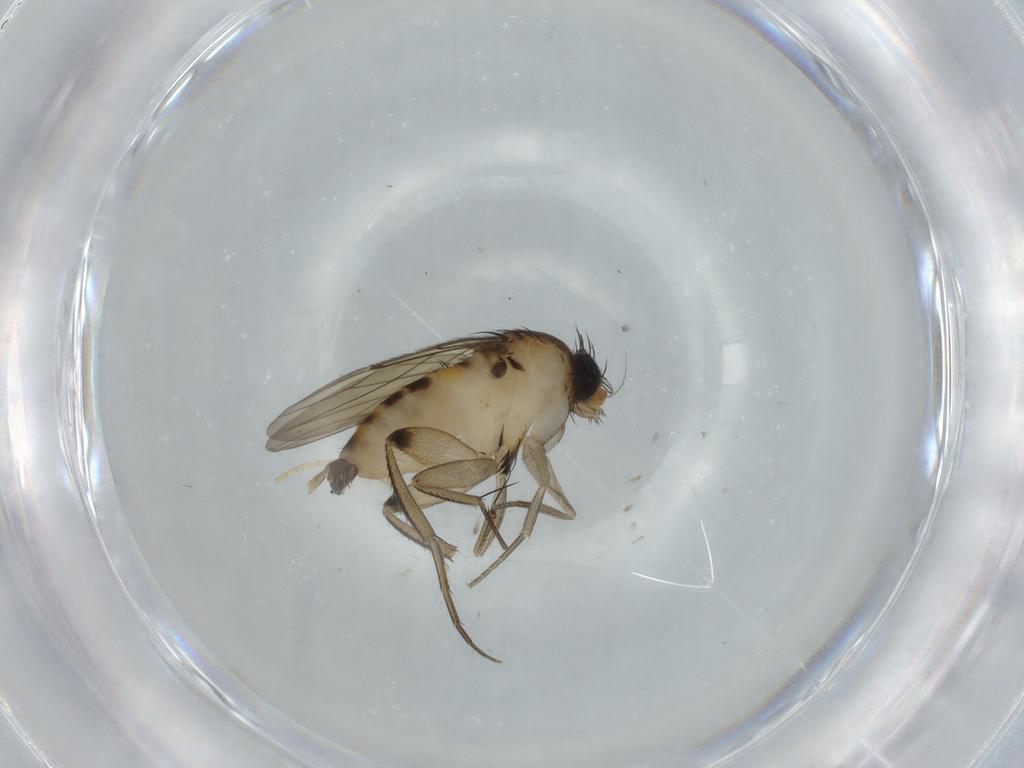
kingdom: Animalia
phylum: Arthropoda
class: Insecta
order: Diptera
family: Phoridae
